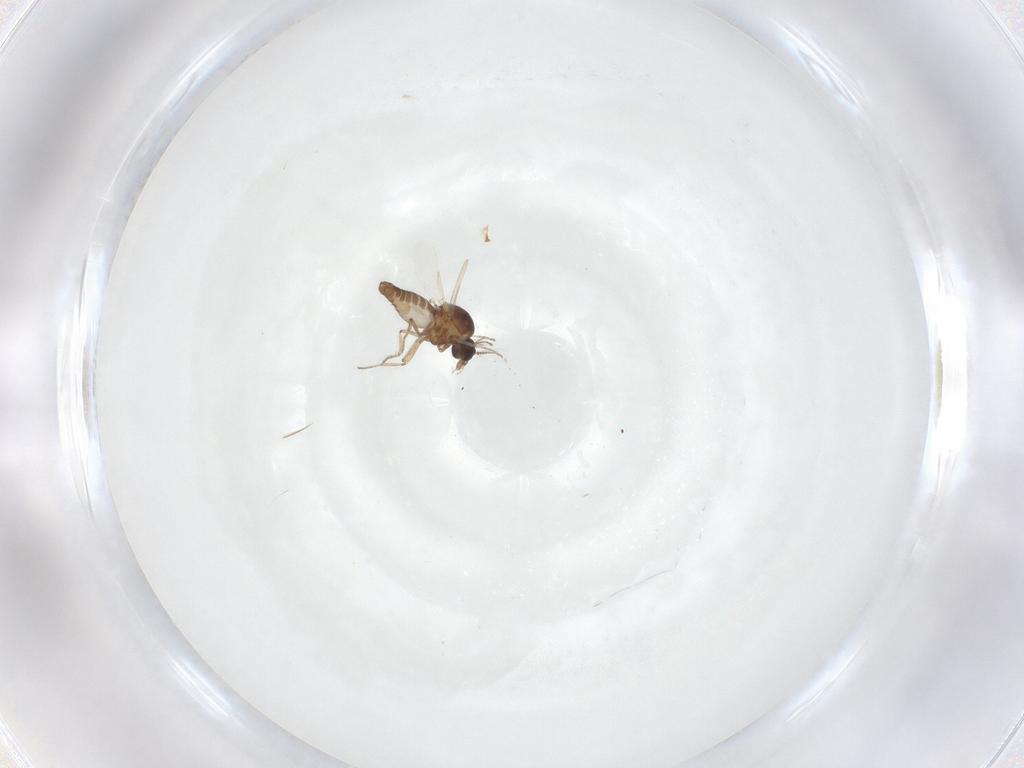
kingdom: Animalia
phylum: Arthropoda
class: Insecta
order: Diptera
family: Ceratopogonidae
